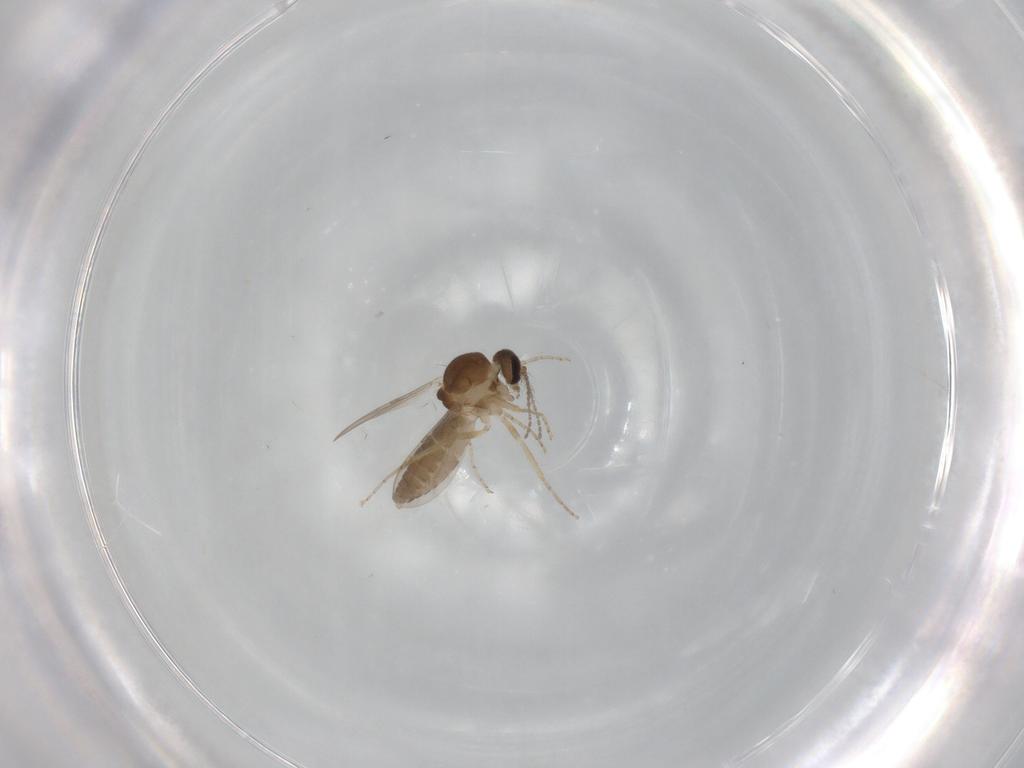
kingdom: Animalia
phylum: Arthropoda
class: Insecta
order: Diptera
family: Ceratopogonidae
